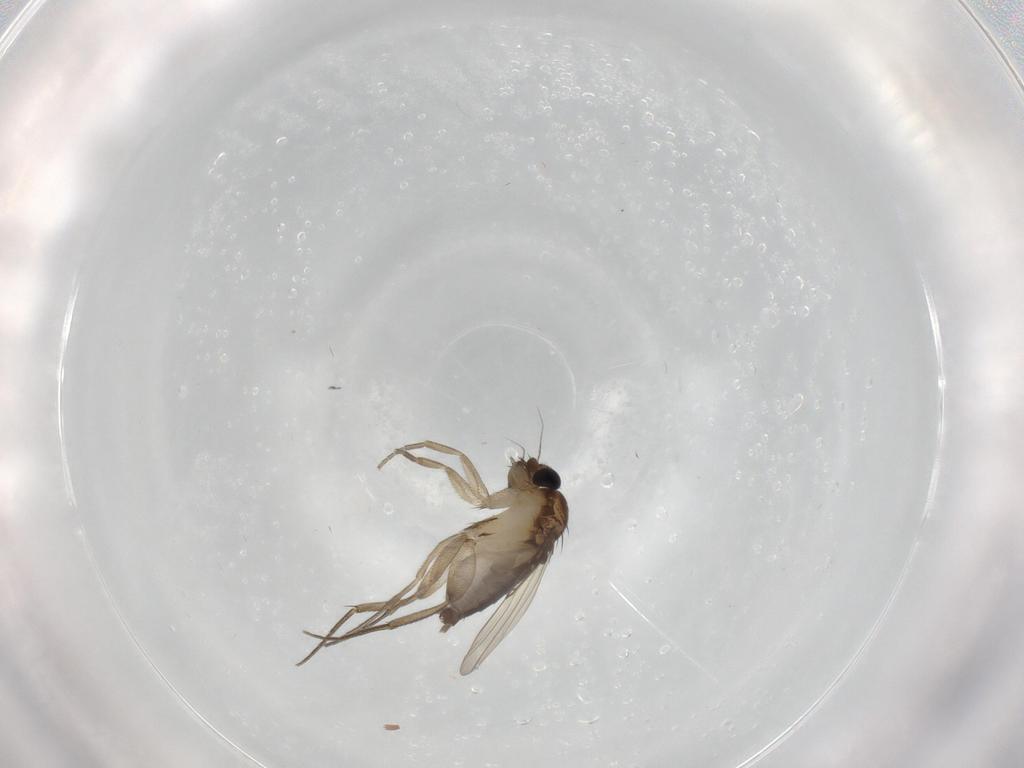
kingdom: Animalia
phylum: Arthropoda
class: Insecta
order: Diptera
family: Phoridae
